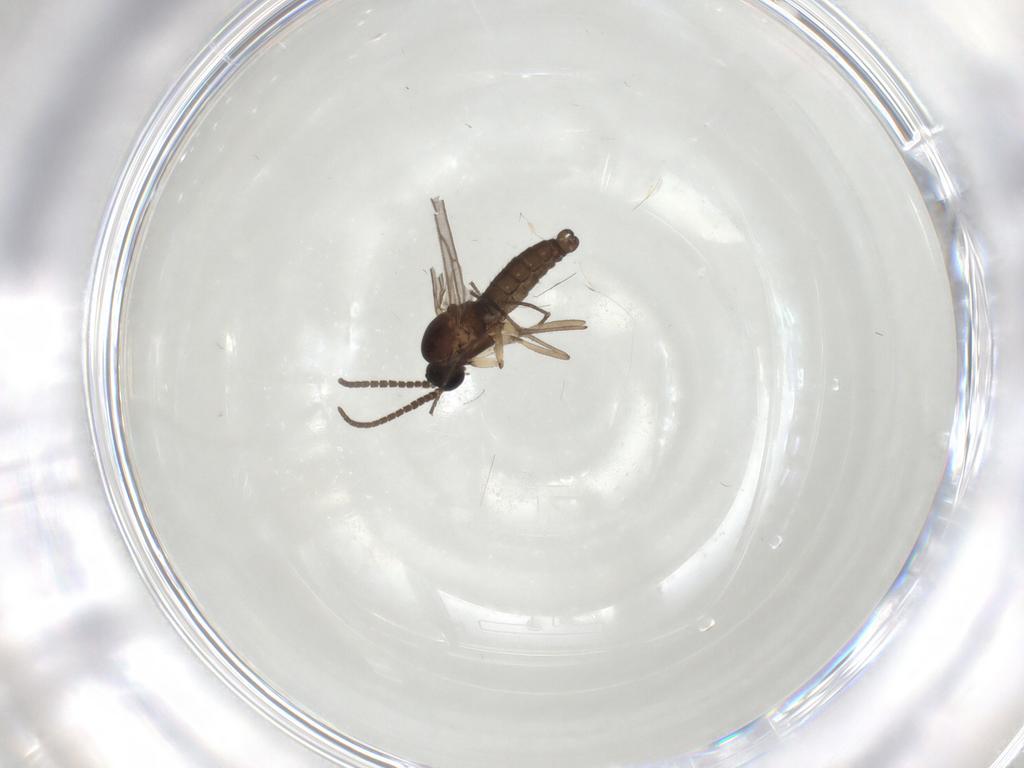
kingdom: Animalia
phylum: Arthropoda
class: Insecta
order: Diptera
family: Sciaridae
